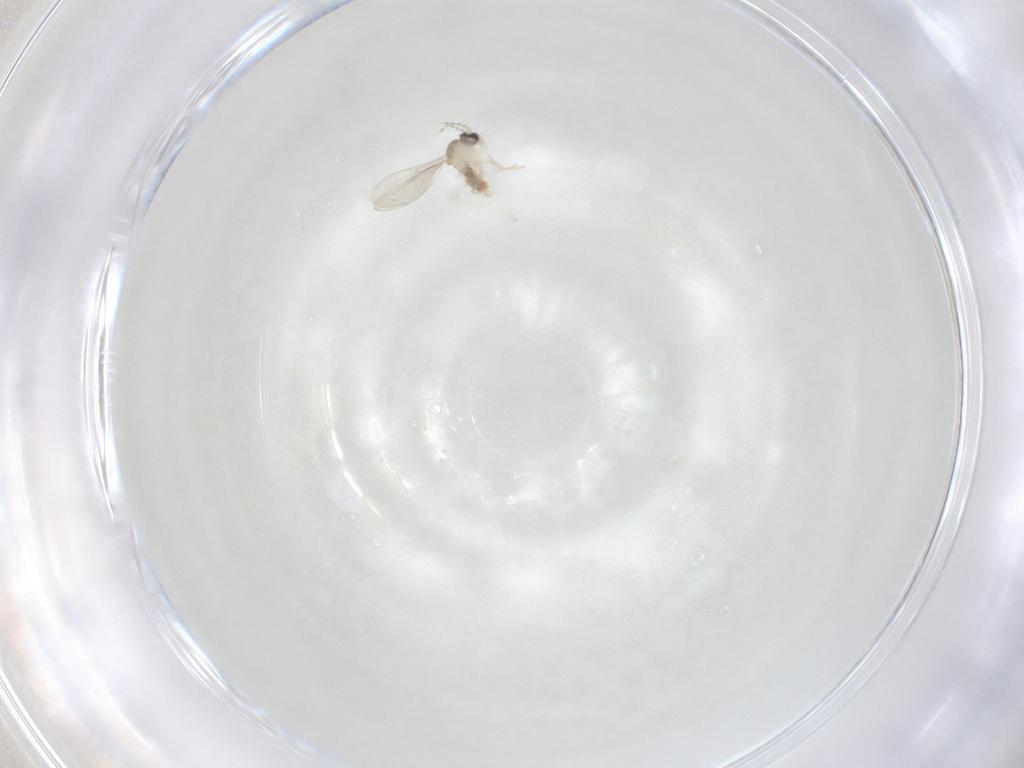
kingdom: Animalia
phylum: Arthropoda
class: Insecta
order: Diptera
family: Cecidomyiidae
